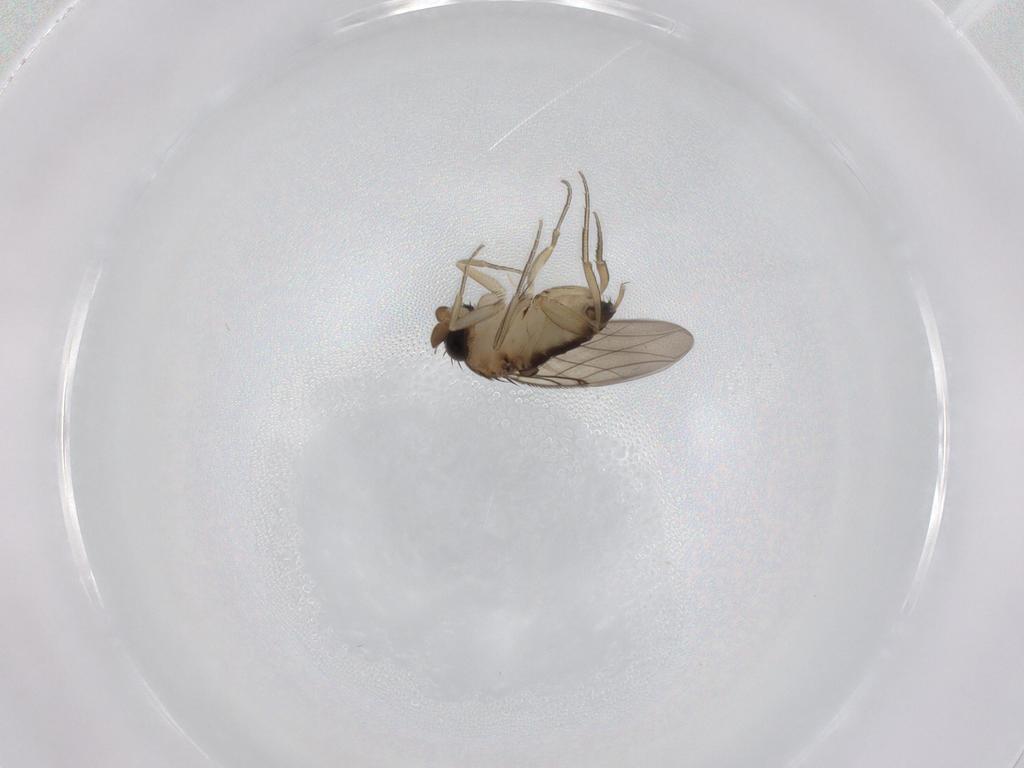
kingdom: Animalia
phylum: Arthropoda
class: Insecta
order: Diptera
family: Phoridae
